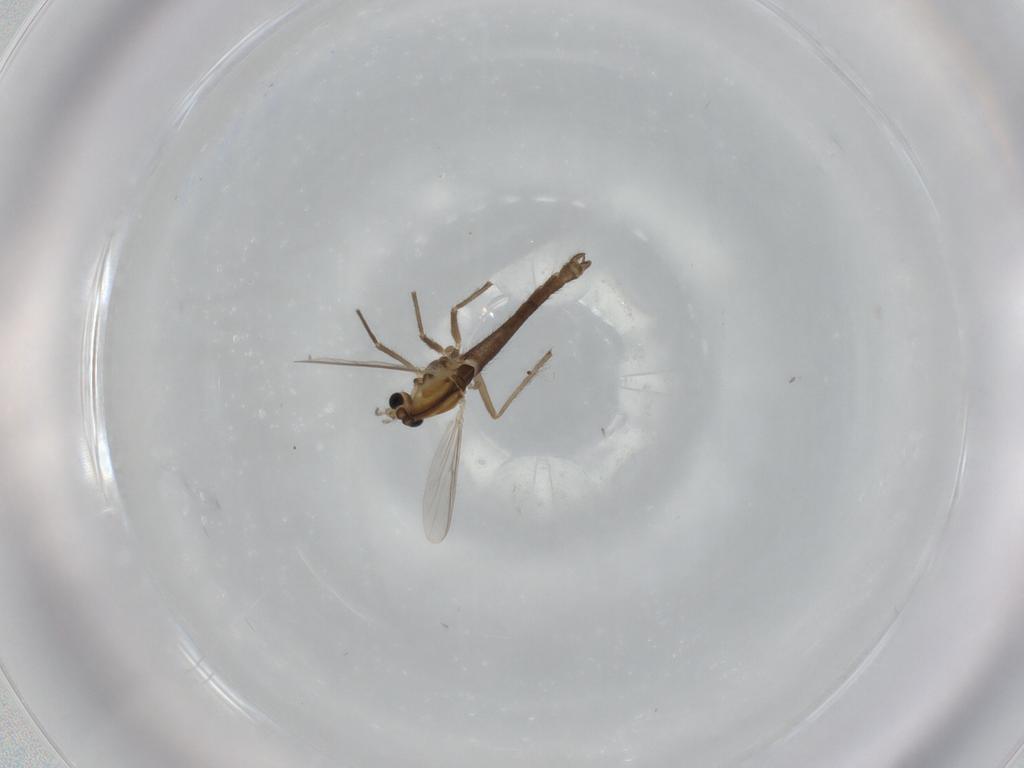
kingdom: Animalia
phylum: Arthropoda
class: Insecta
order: Diptera
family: Chironomidae
